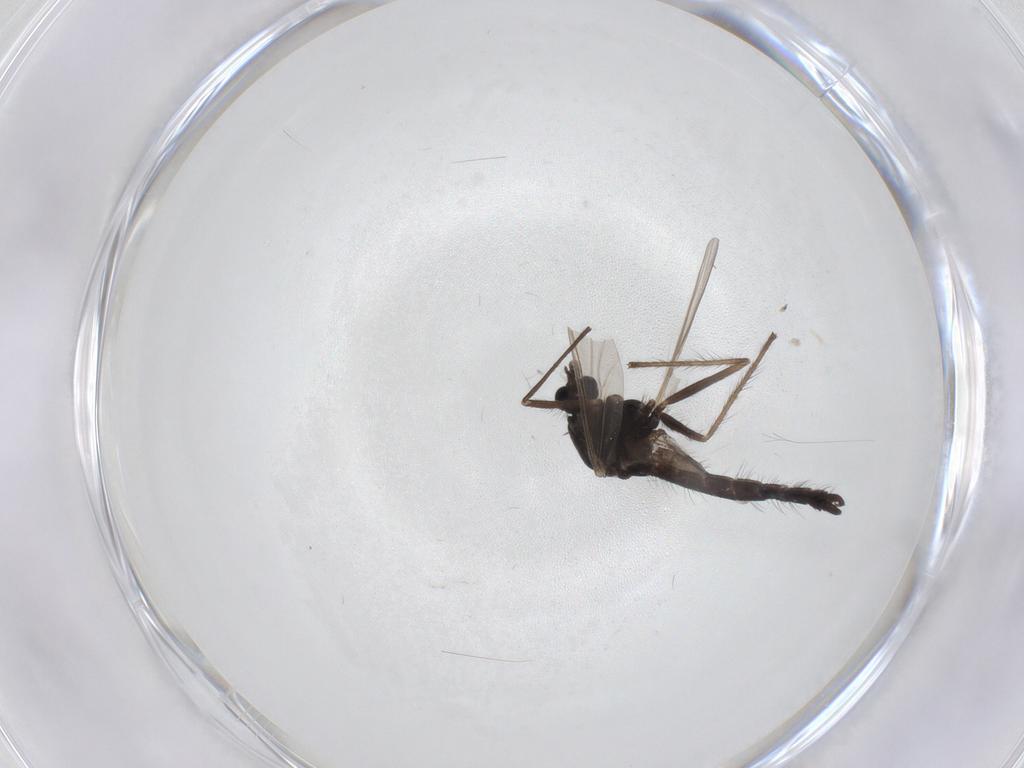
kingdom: Animalia
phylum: Arthropoda
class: Insecta
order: Diptera
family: Chironomidae
